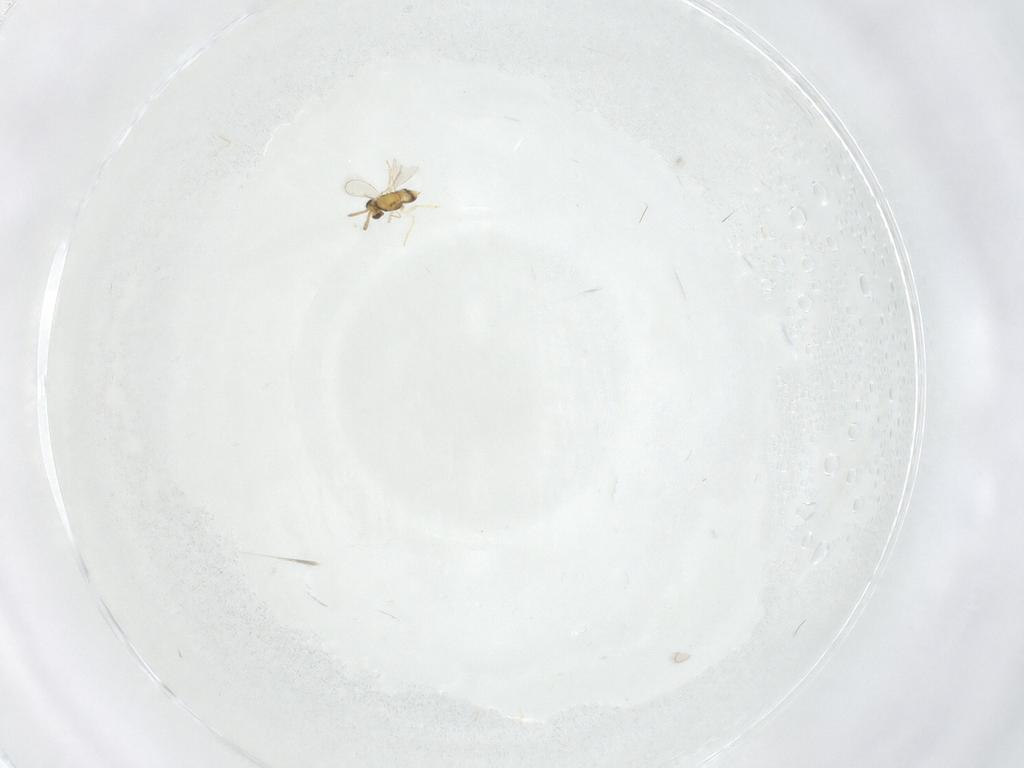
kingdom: Animalia
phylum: Arthropoda
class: Insecta
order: Hymenoptera
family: Aphelinidae
